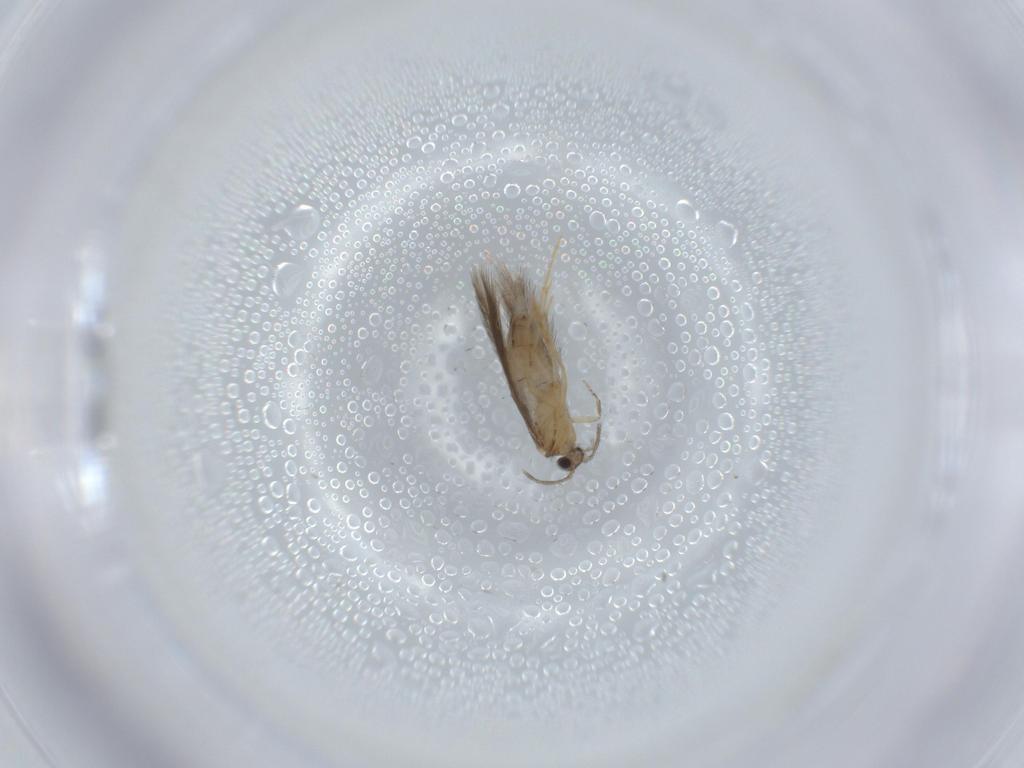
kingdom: Animalia
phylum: Arthropoda
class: Insecta
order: Trichoptera
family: Hydroptilidae
